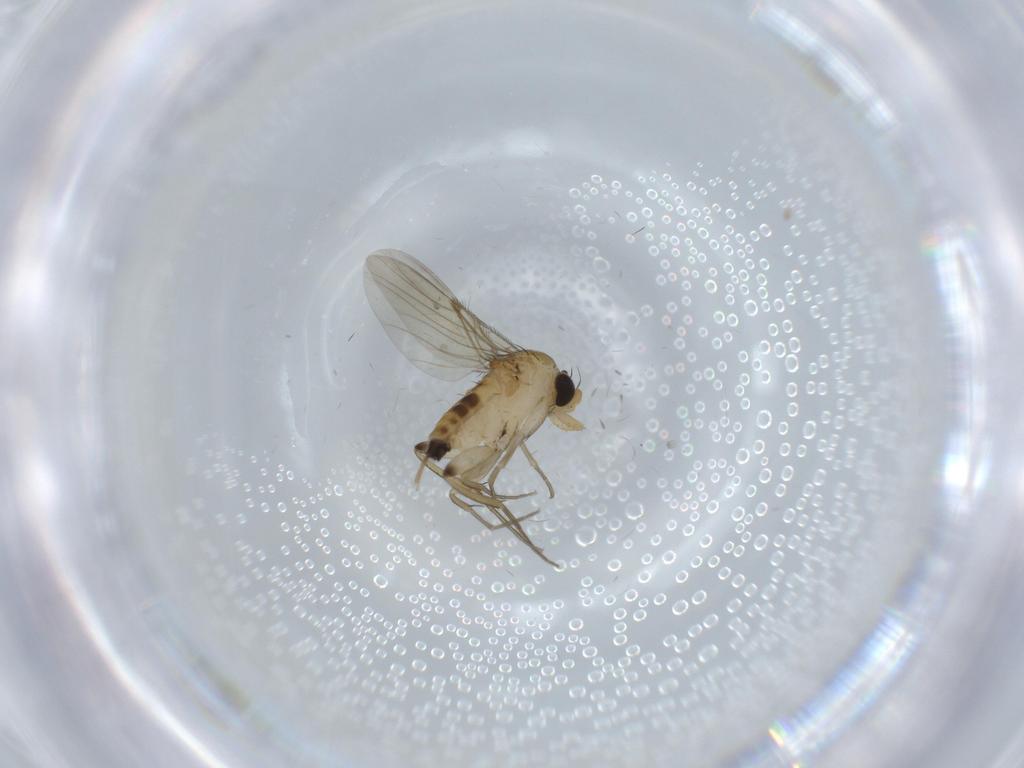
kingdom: Animalia
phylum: Arthropoda
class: Insecta
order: Diptera
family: Phoridae
